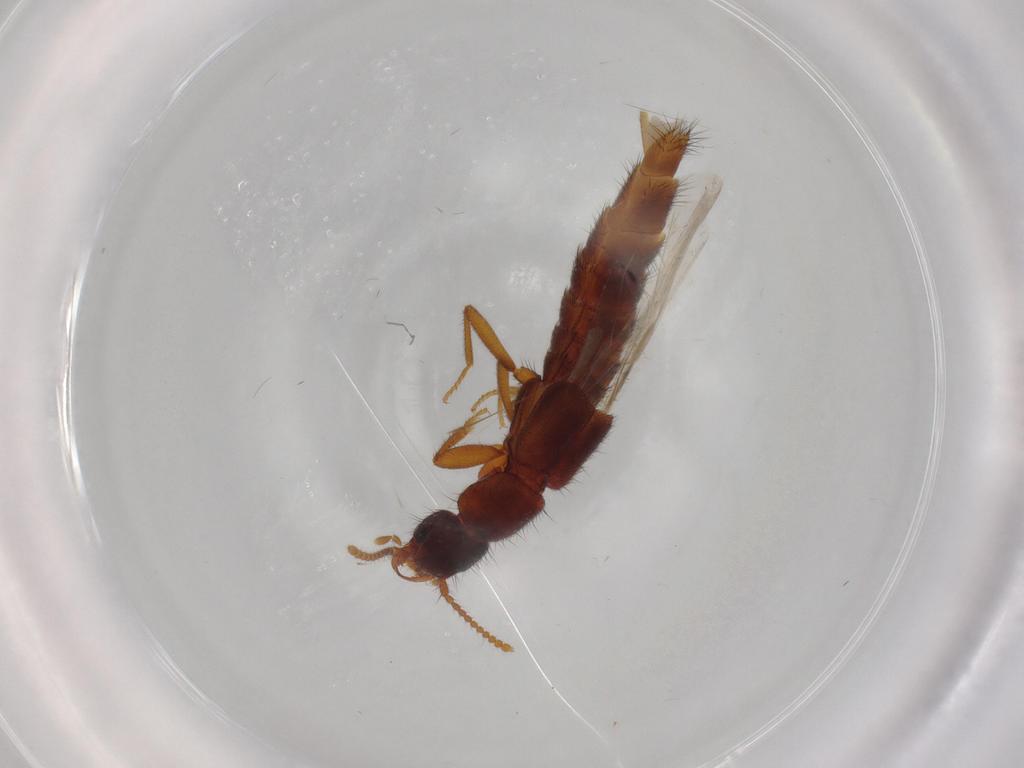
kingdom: Animalia
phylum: Arthropoda
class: Insecta
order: Coleoptera
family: Staphylinidae
